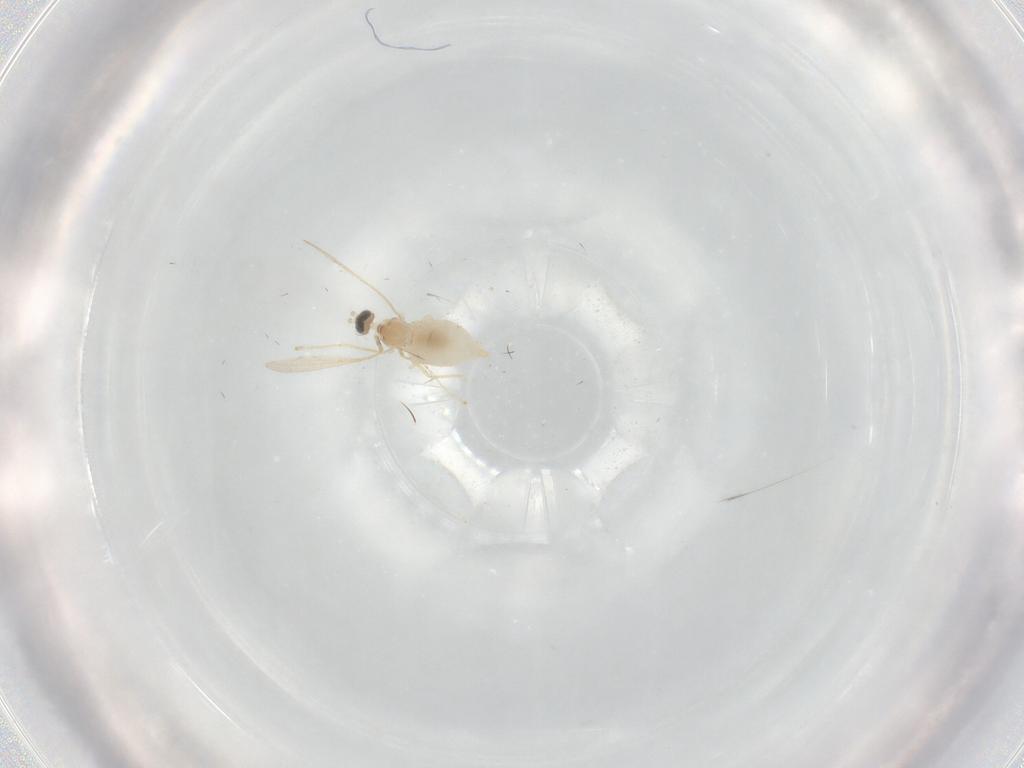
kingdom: Animalia
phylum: Arthropoda
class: Insecta
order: Diptera
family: Cecidomyiidae
